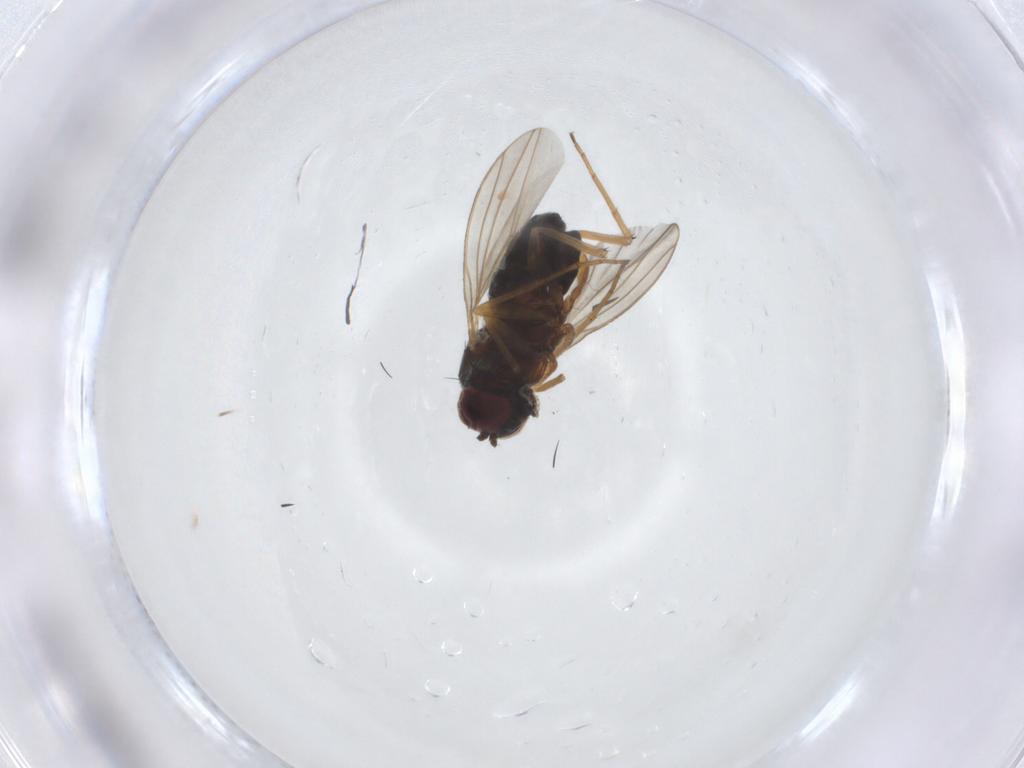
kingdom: Animalia
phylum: Arthropoda
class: Insecta
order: Diptera
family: Dolichopodidae
